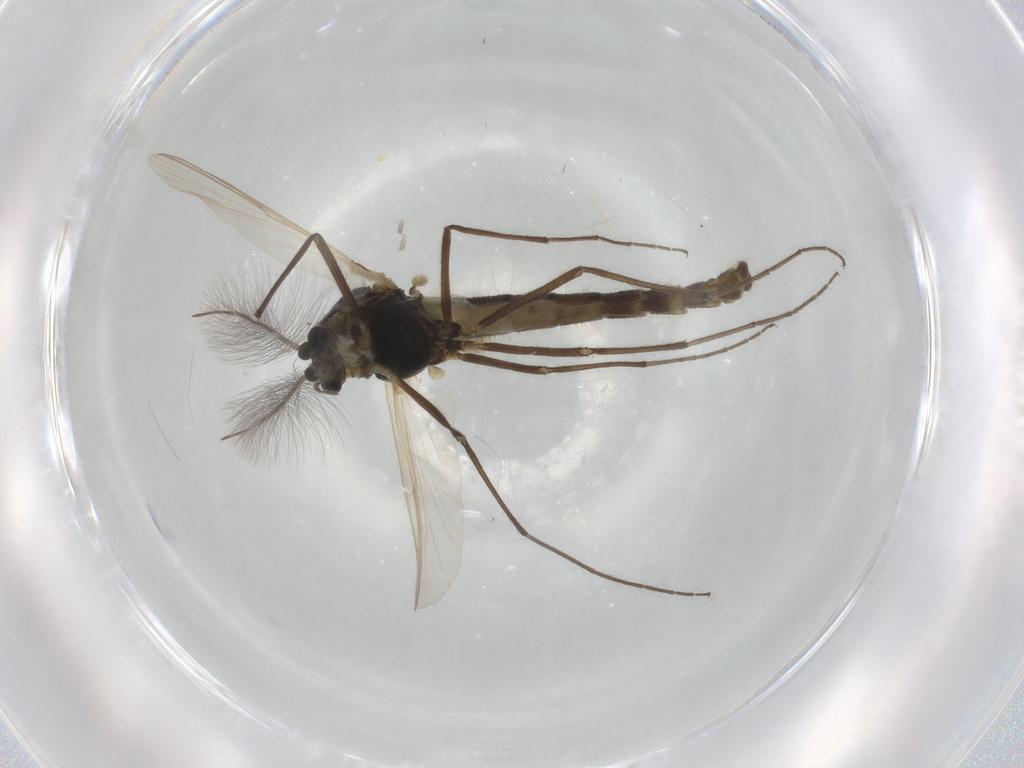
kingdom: Animalia
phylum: Arthropoda
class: Insecta
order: Diptera
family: Chironomidae
